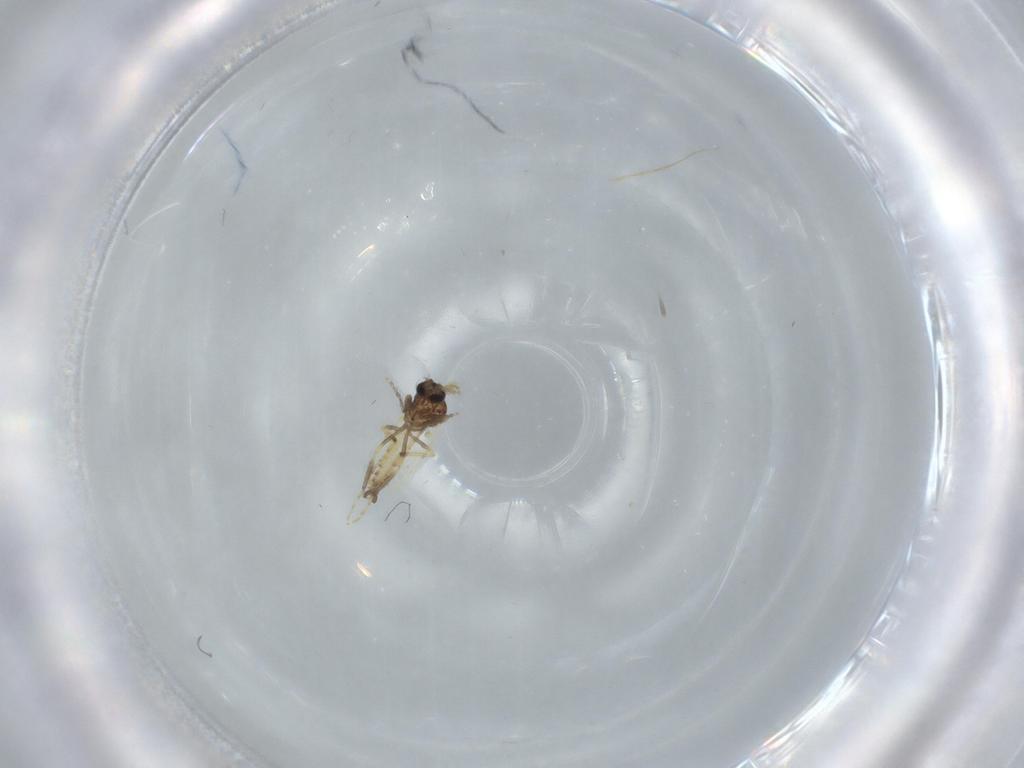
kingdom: Animalia
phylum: Arthropoda
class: Insecta
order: Diptera
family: Ceratopogonidae
